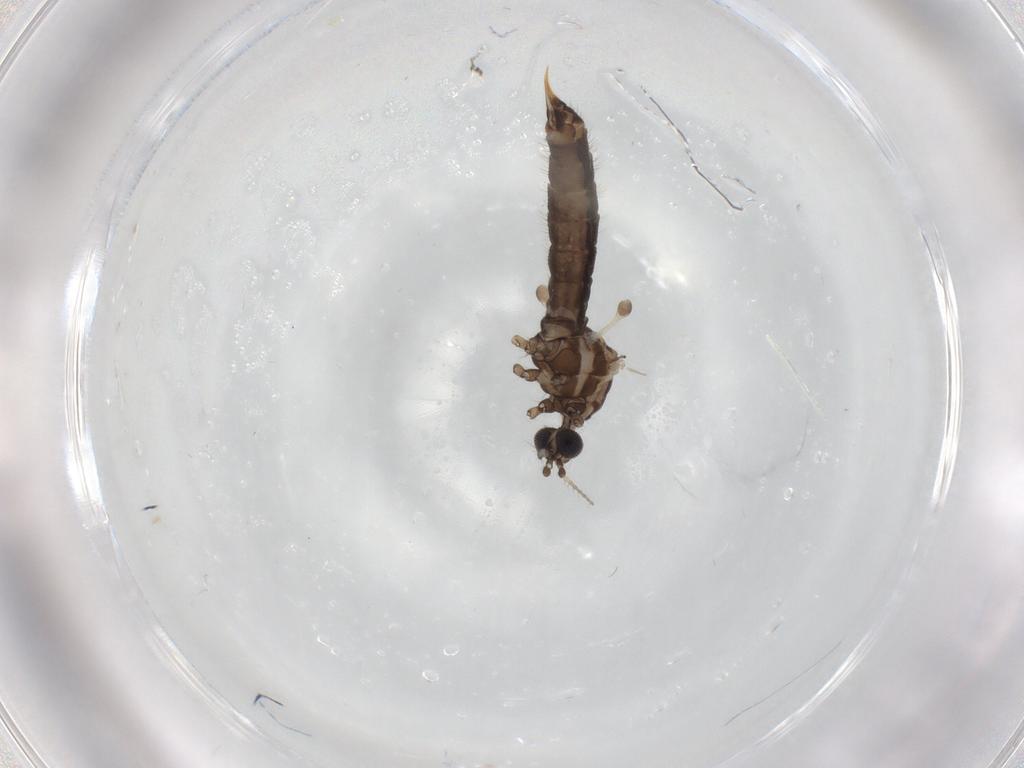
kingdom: Animalia
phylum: Arthropoda
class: Insecta
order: Diptera
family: Limoniidae
